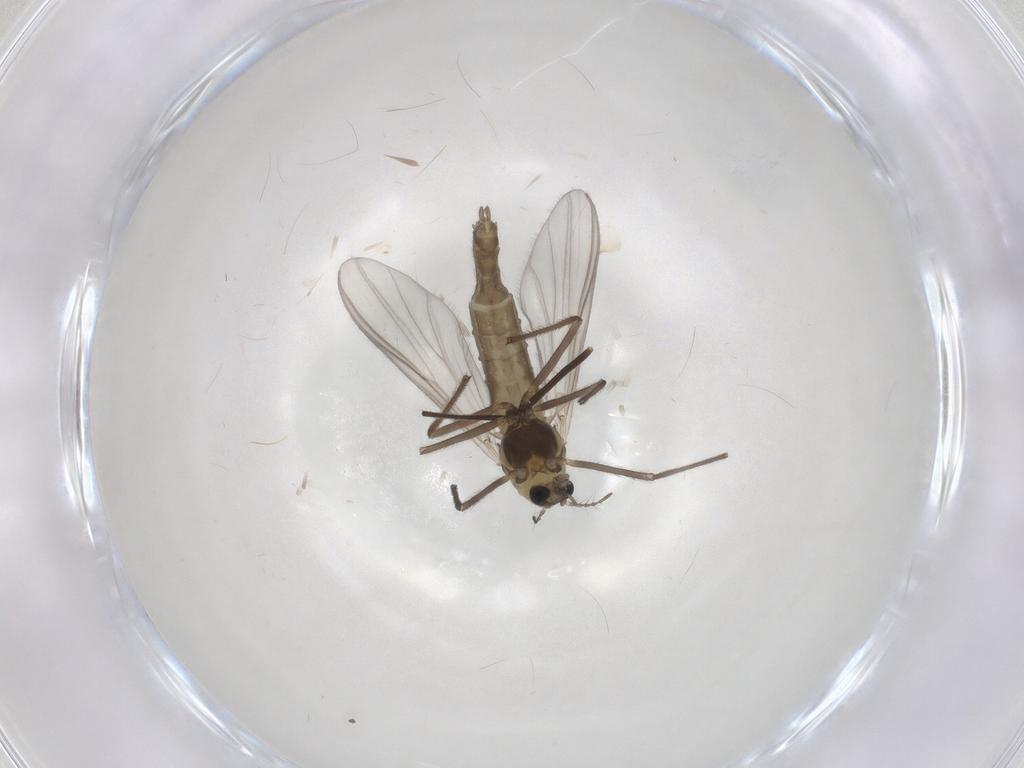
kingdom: Animalia
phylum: Arthropoda
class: Insecta
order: Diptera
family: Chironomidae
